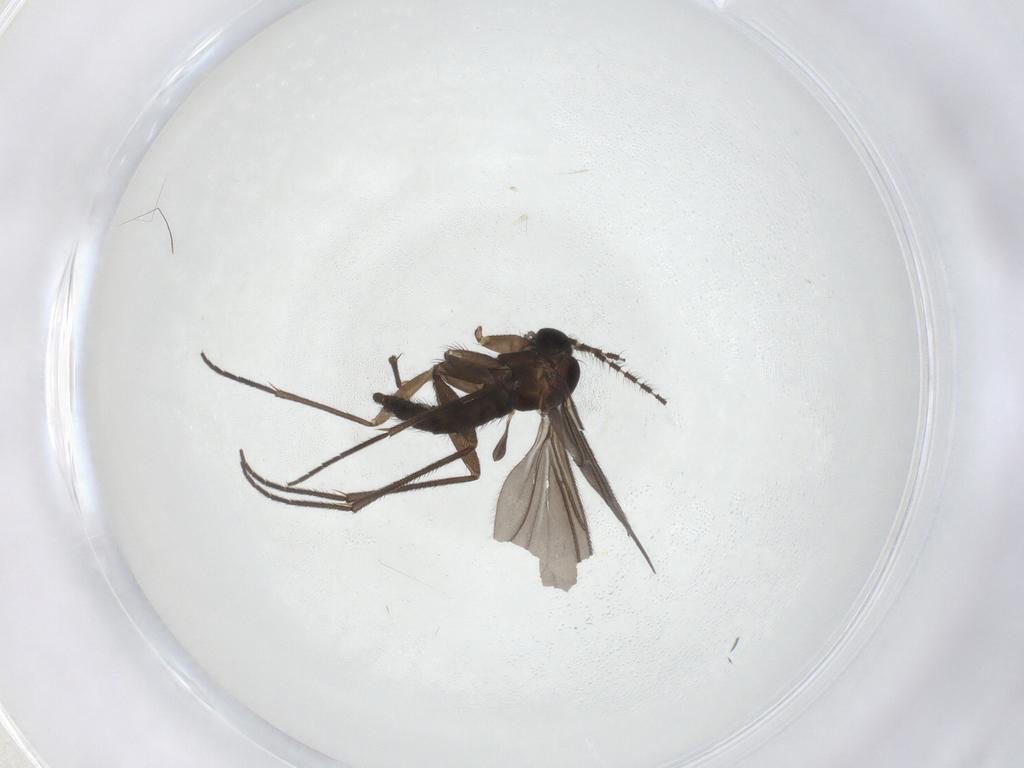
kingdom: Animalia
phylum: Arthropoda
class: Insecta
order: Diptera
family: Sciaridae
